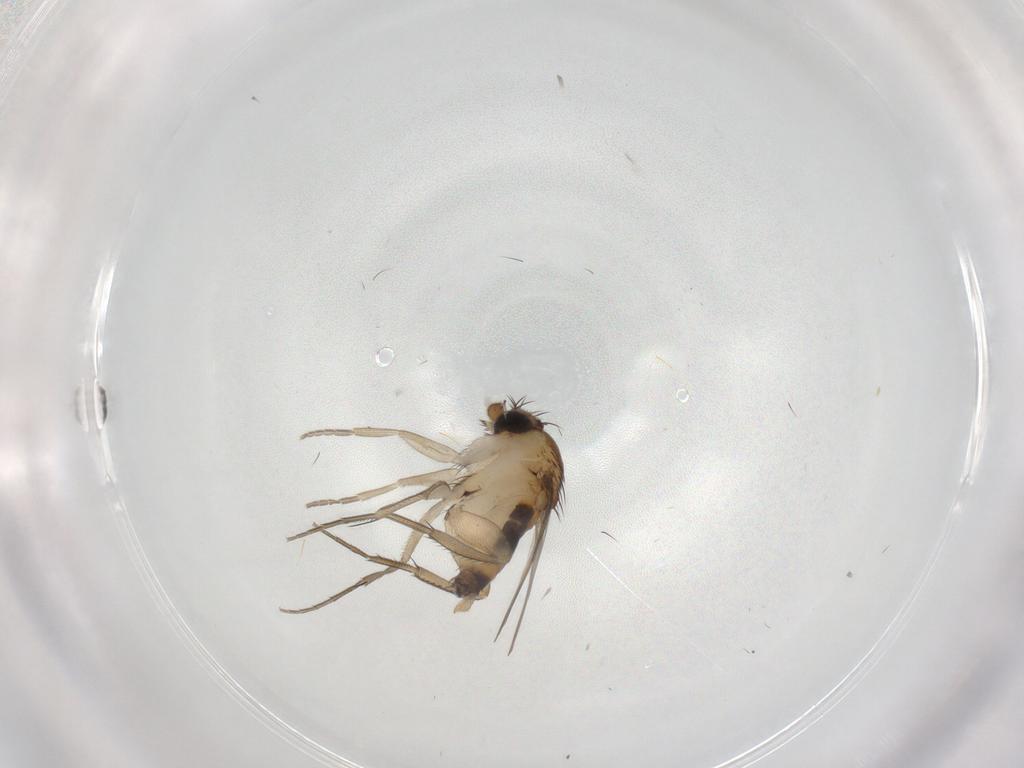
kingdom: Animalia
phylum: Arthropoda
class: Insecta
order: Diptera
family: Phoridae
